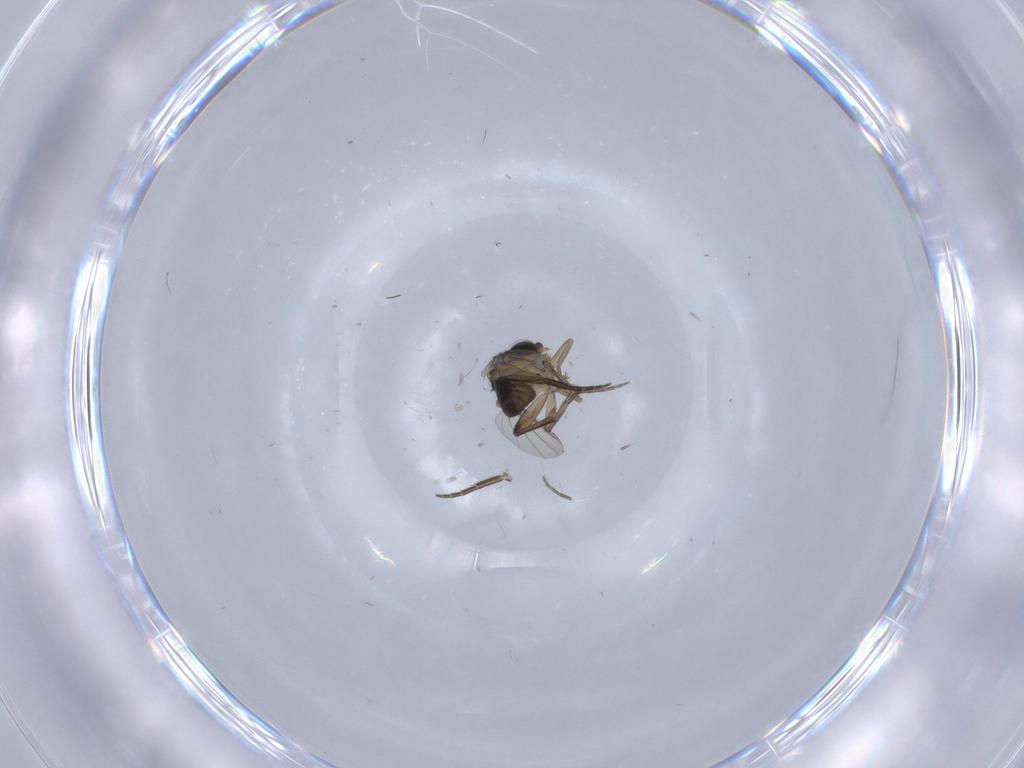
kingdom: Animalia
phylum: Arthropoda
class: Insecta
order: Diptera
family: Phoridae
